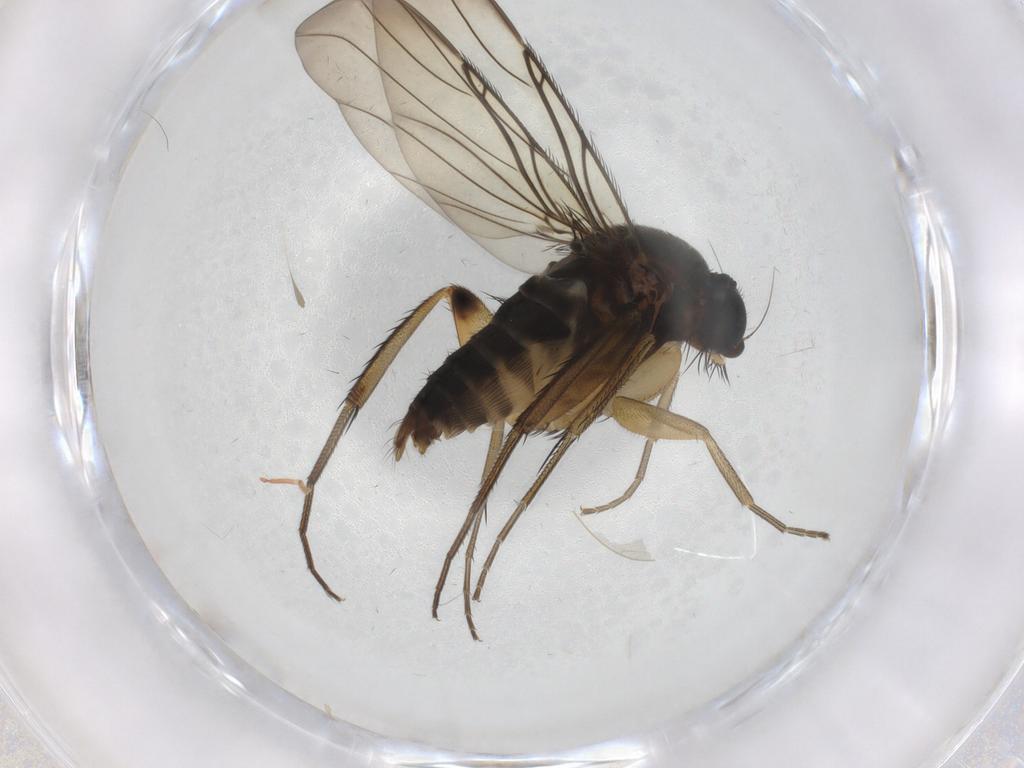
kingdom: Animalia
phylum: Arthropoda
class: Insecta
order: Diptera
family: Phoridae
